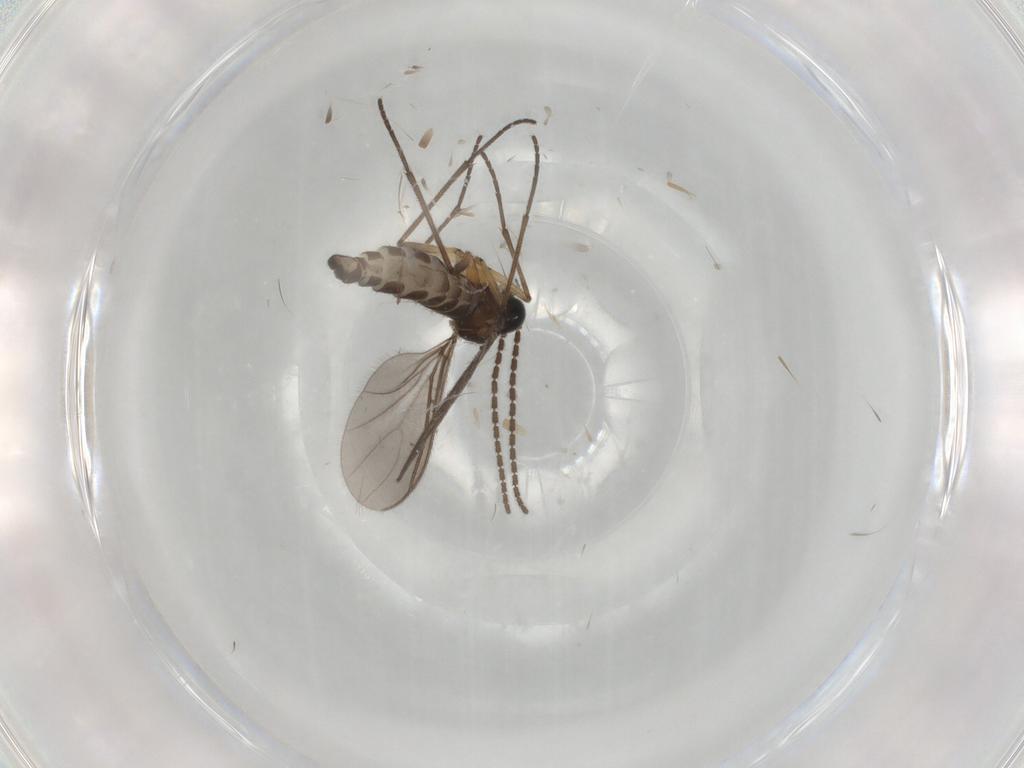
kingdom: Animalia
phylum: Arthropoda
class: Insecta
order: Diptera
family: Sciaridae
